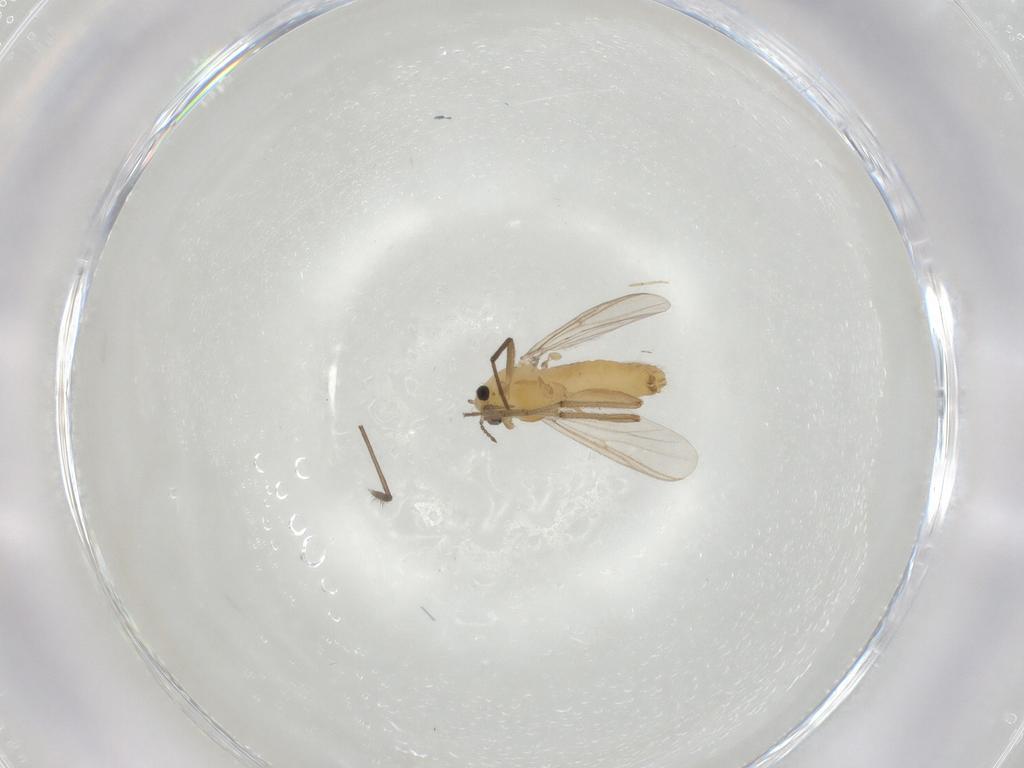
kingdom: Animalia
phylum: Arthropoda
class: Insecta
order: Diptera
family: Chironomidae
